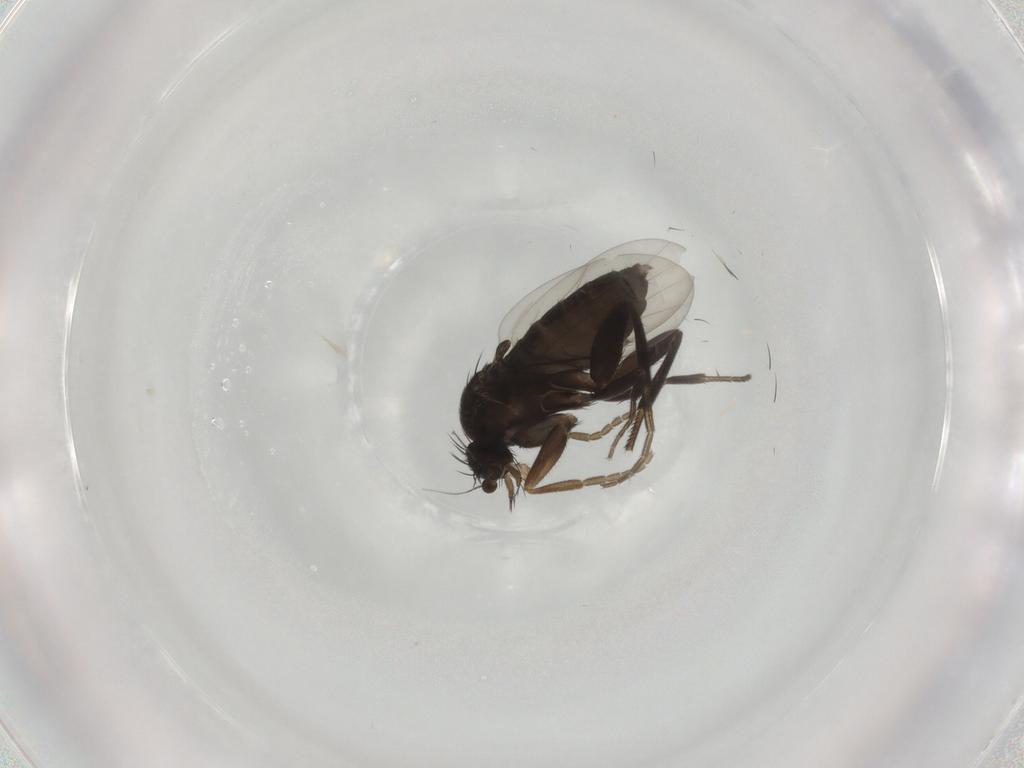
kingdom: Animalia
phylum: Arthropoda
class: Insecta
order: Diptera
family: Phoridae
